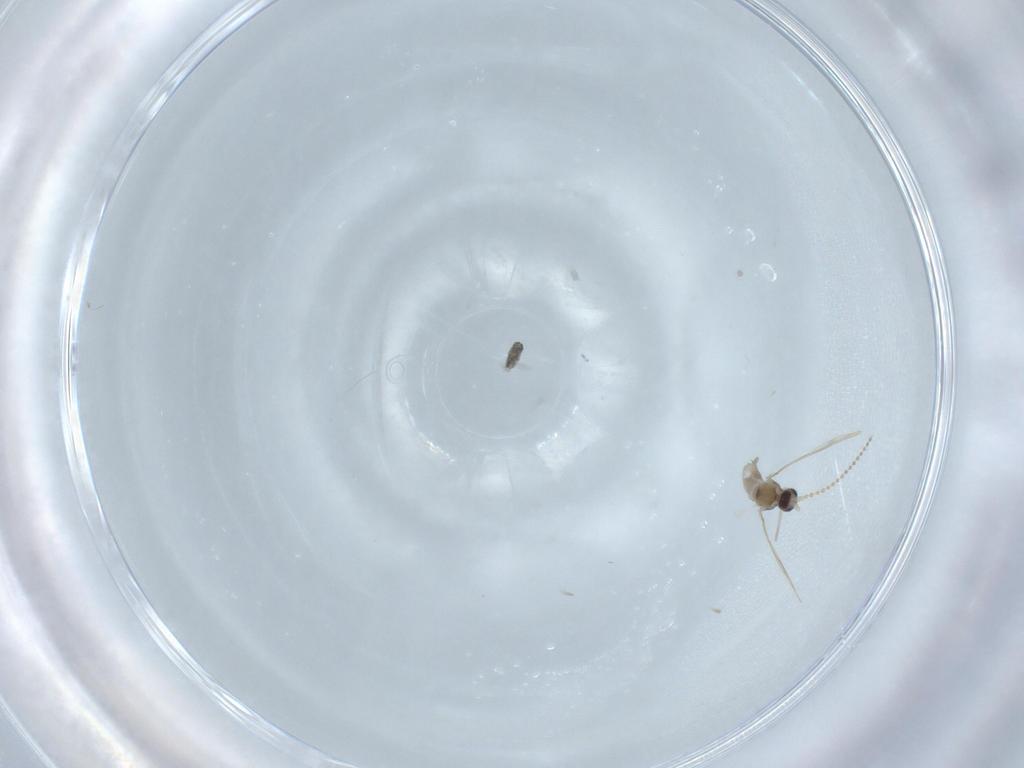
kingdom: Animalia
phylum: Arthropoda
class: Insecta
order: Diptera
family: Cecidomyiidae
